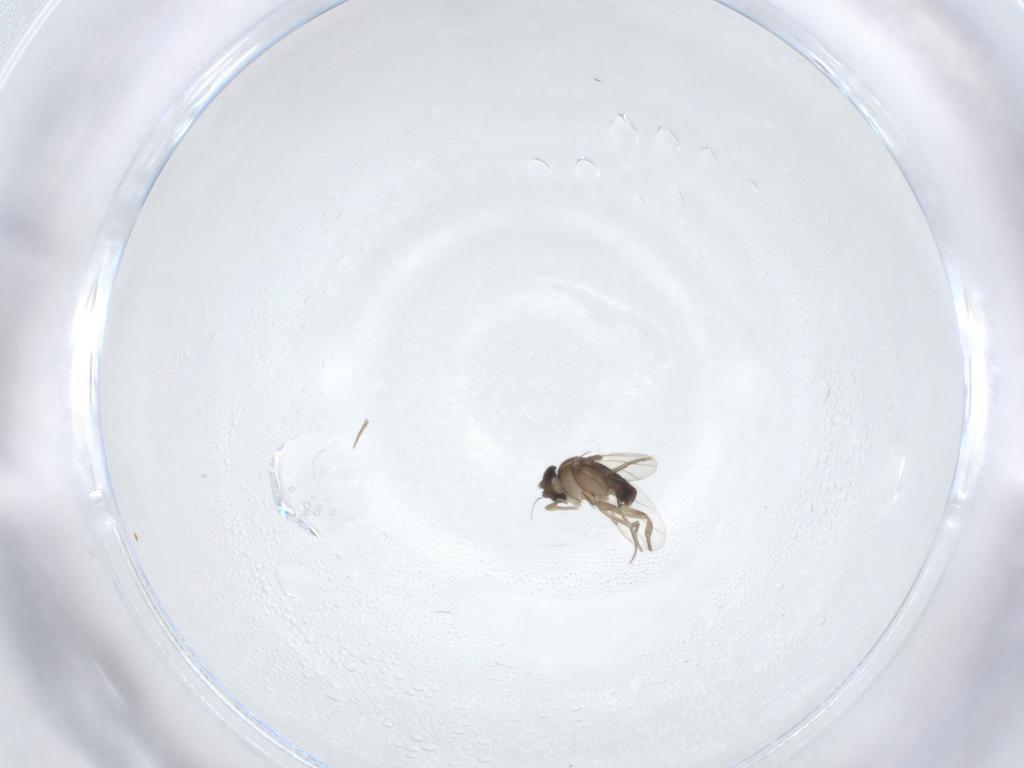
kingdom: Animalia
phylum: Arthropoda
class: Insecta
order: Diptera
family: Phoridae
